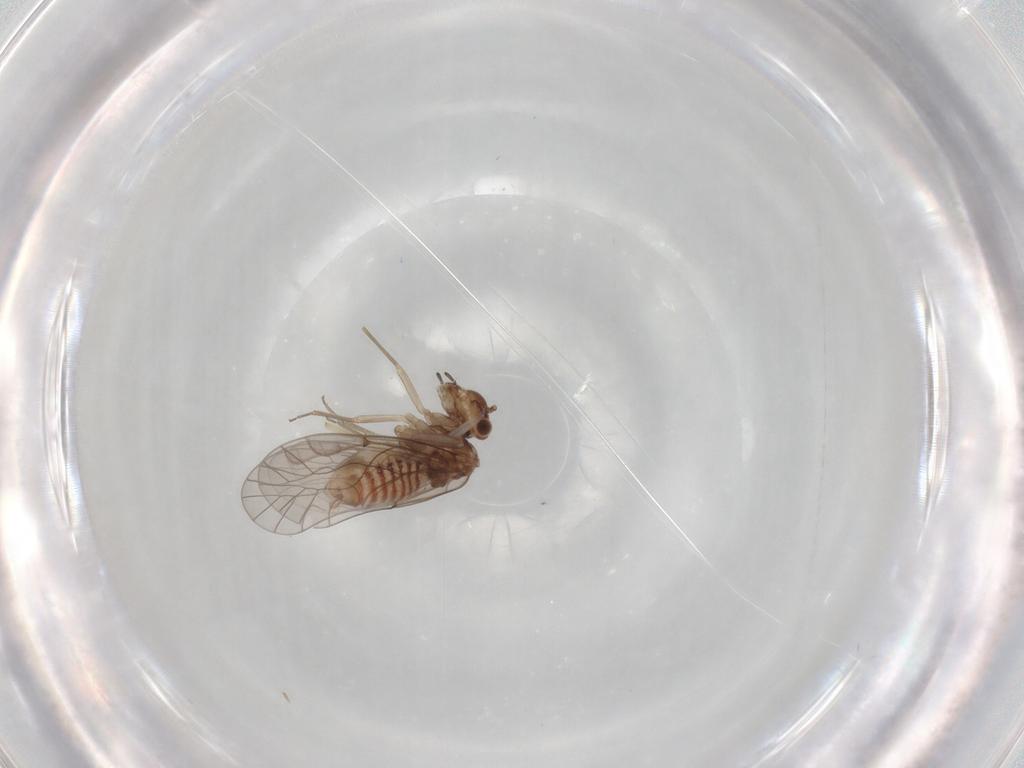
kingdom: Animalia
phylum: Arthropoda
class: Insecta
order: Psocodea
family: Lachesillidae
